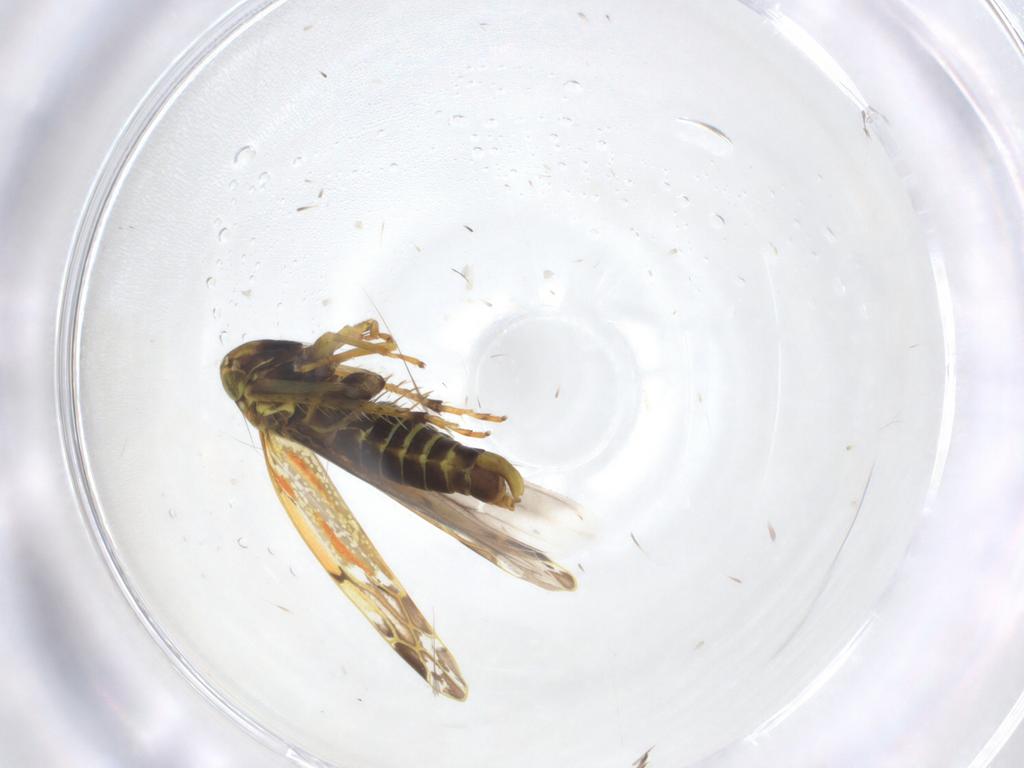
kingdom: Animalia
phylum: Arthropoda
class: Insecta
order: Hemiptera
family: Cicadellidae
